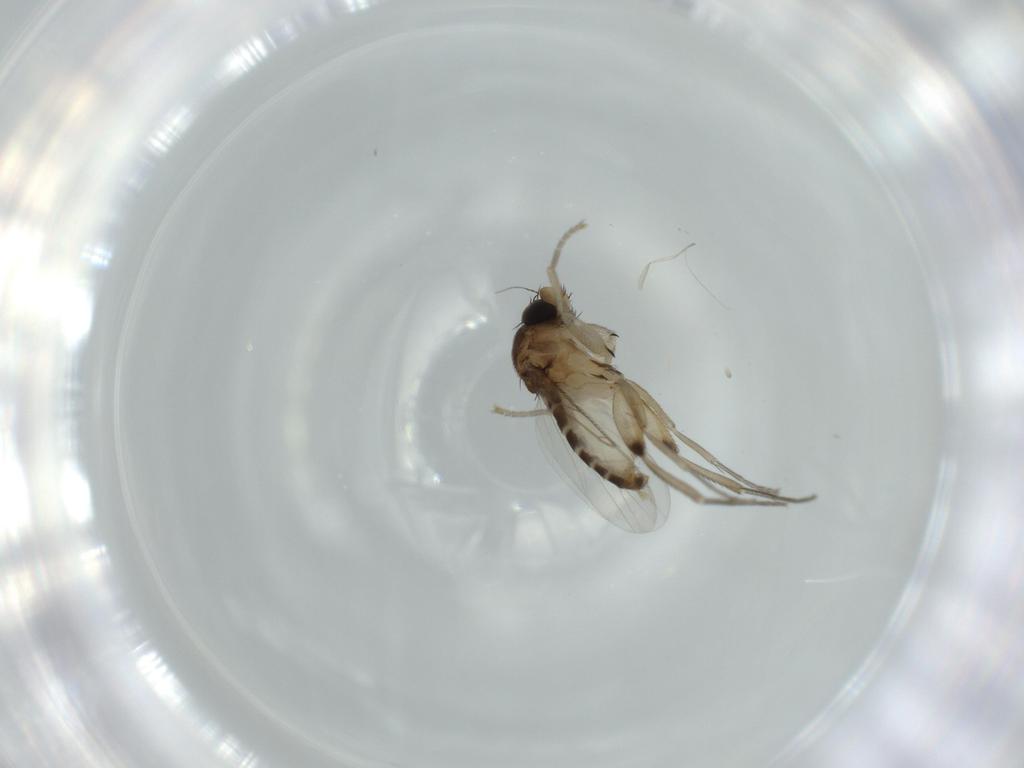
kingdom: Animalia
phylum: Arthropoda
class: Insecta
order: Diptera
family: Phoridae
